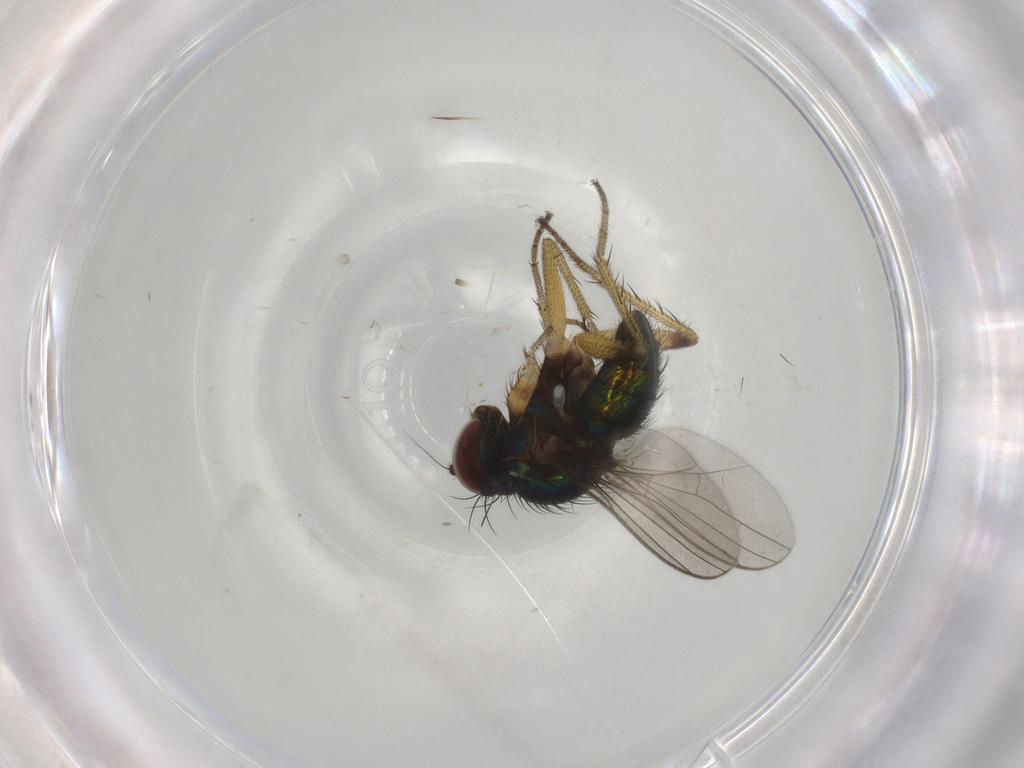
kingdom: Animalia
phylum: Arthropoda
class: Insecta
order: Diptera
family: Dolichopodidae
